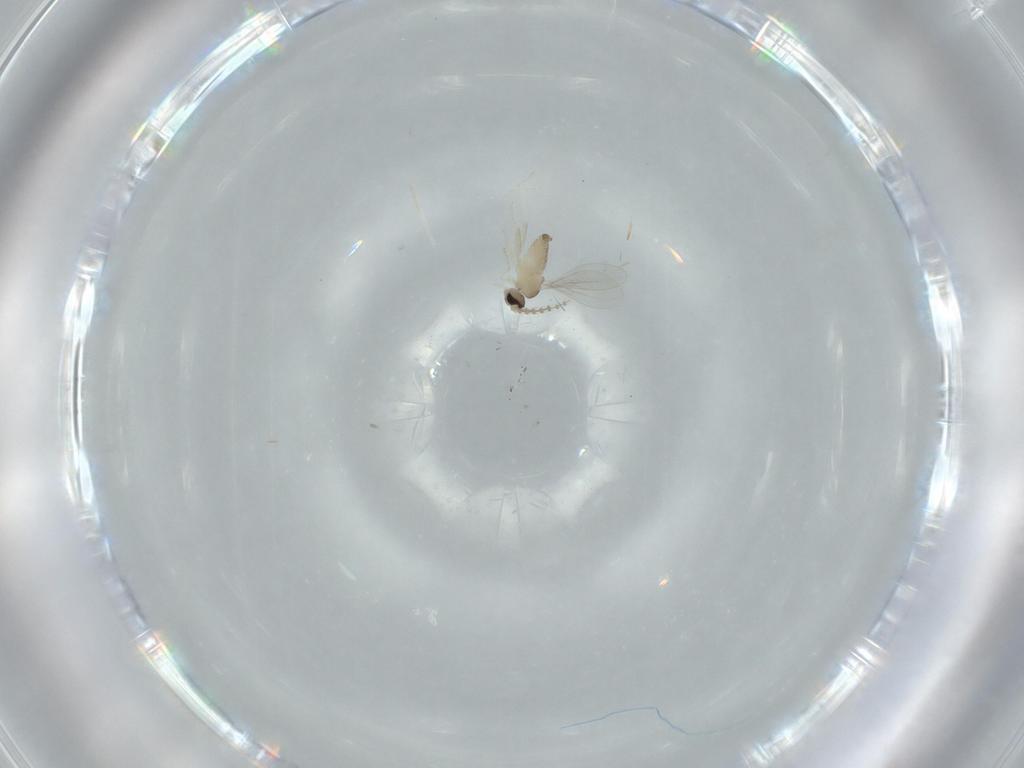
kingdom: Animalia
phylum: Arthropoda
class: Insecta
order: Diptera
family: Cecidomyiidae
